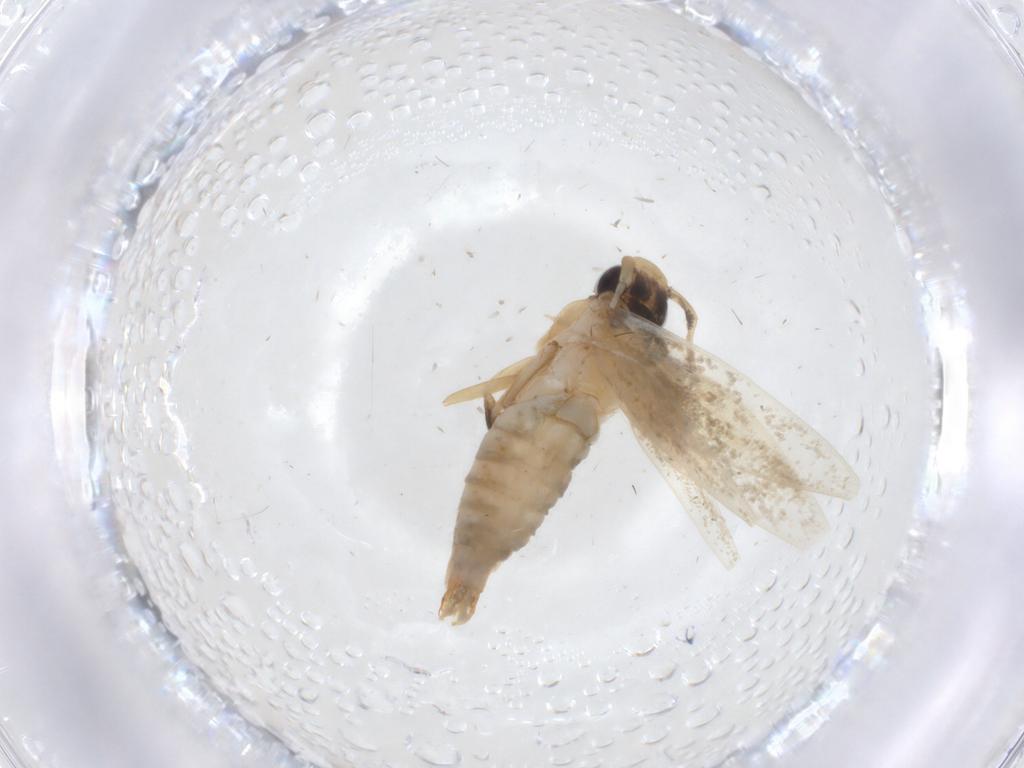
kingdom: Animalia
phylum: Arthropoda
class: Insecta
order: Lepidoptera
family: Tineidae
